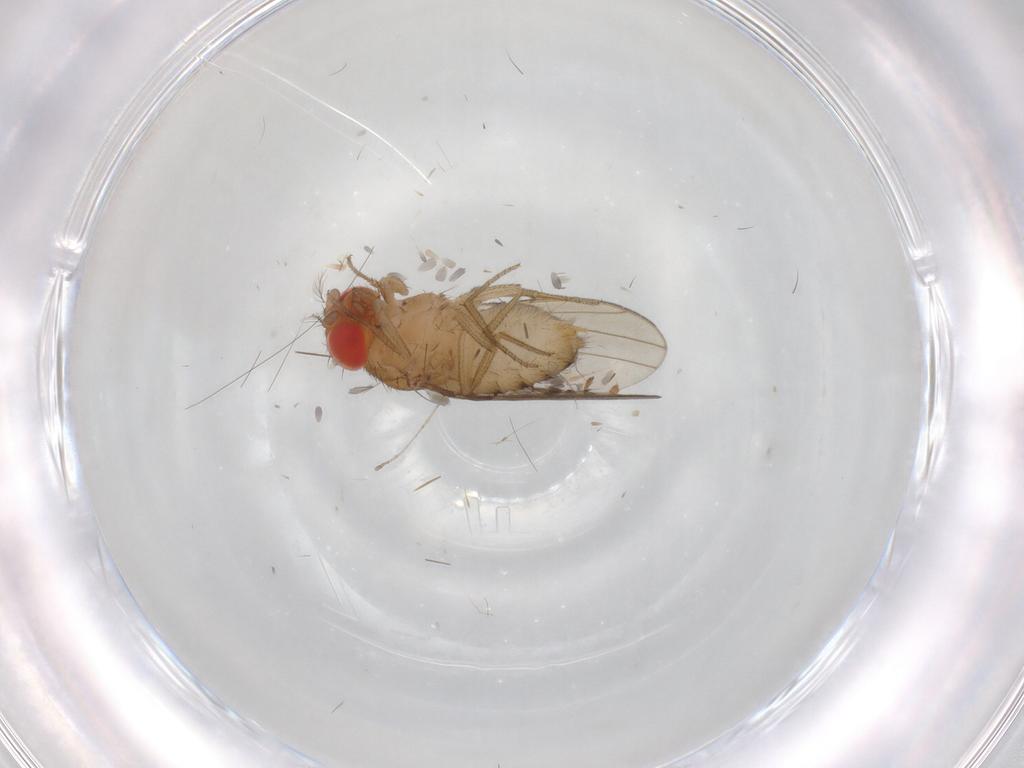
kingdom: Animalia
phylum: Arthropoda
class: Insecta
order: Diptera
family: Drosophilidae
